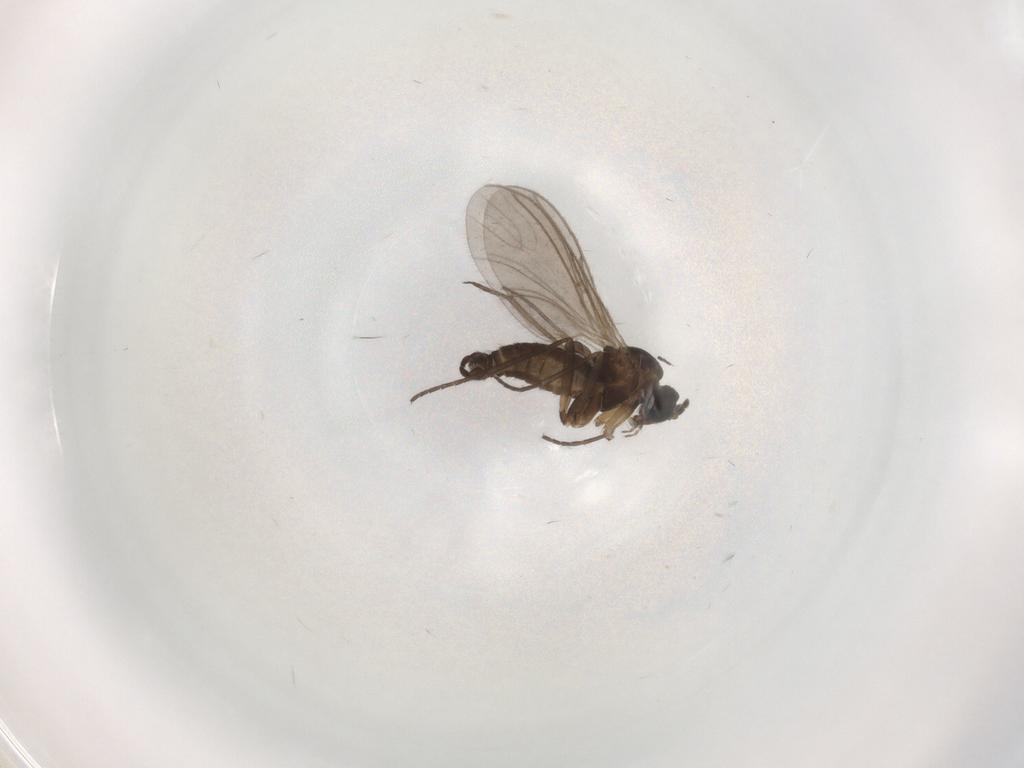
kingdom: Animalia
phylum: Arthropoda
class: Insecta
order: Diptera
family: Sciaridae
